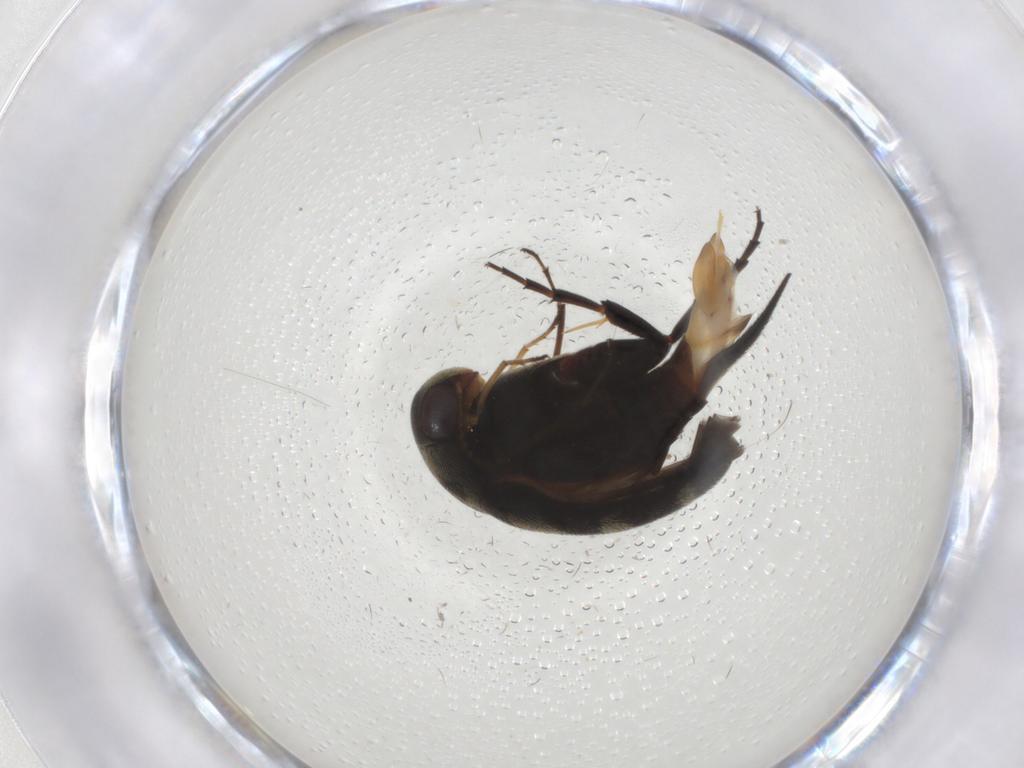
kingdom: Animalia
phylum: Arthropoda
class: Insecta
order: Coleoptera
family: Mordellidae
